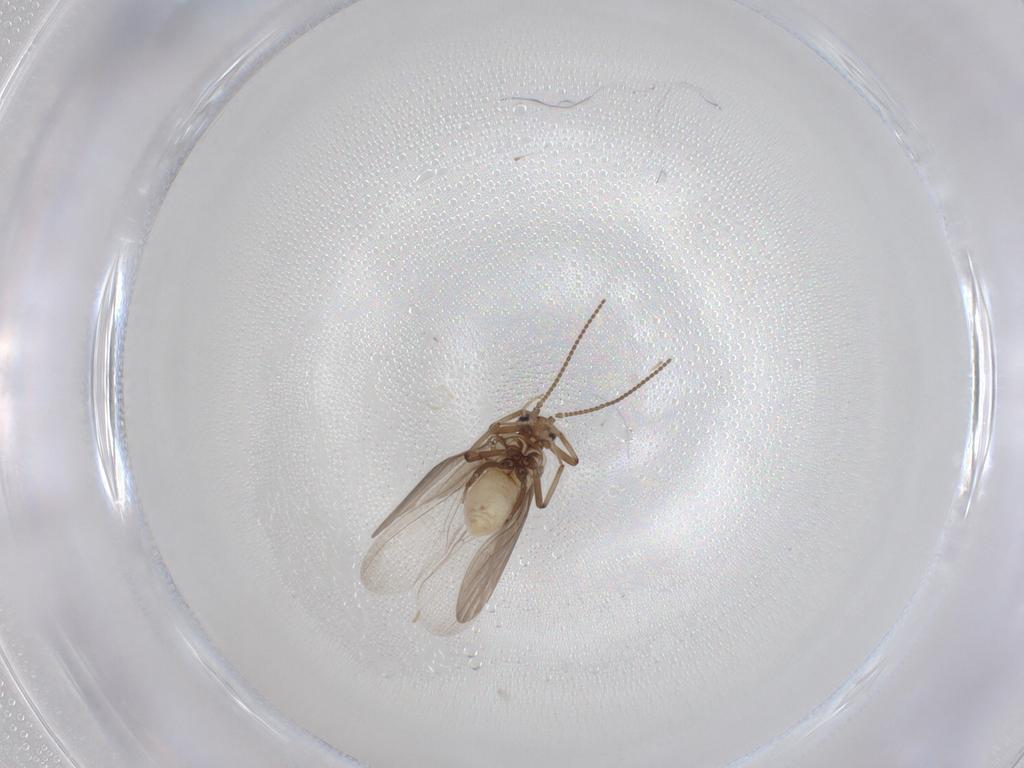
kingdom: Animalia
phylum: Arthropoda
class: Insecta
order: Neuroptera
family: Coniopterygidae
